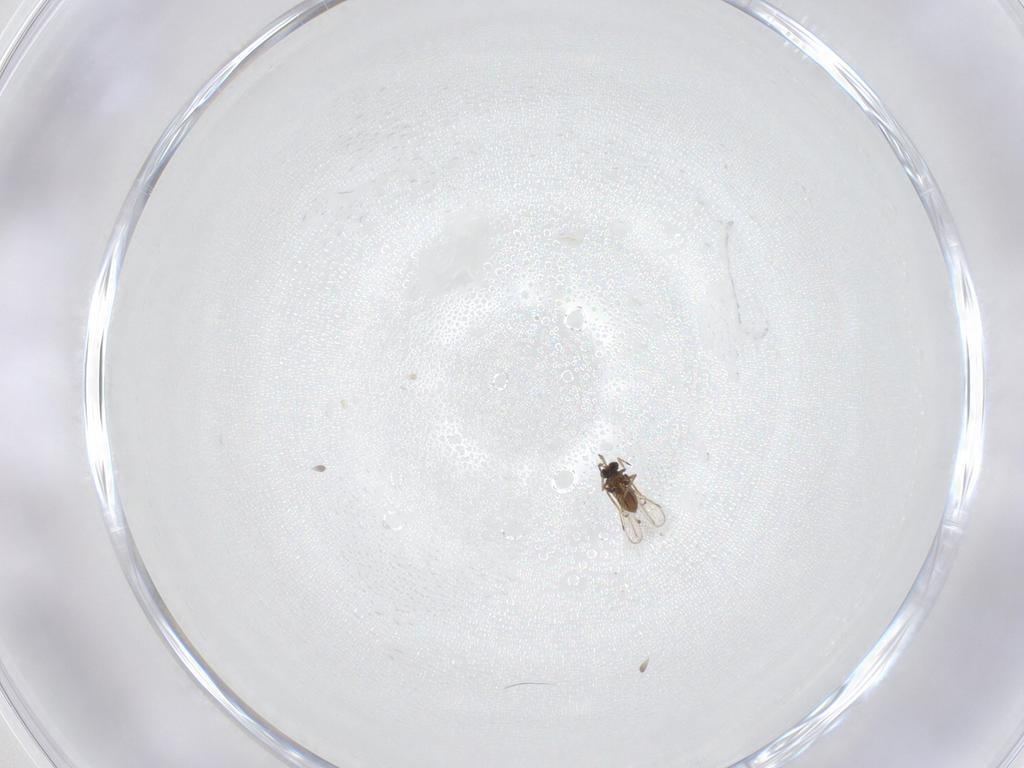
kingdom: Animalia
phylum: Arthropoda
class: Insecta
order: Hymenoptera
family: Trichogrammatidae
